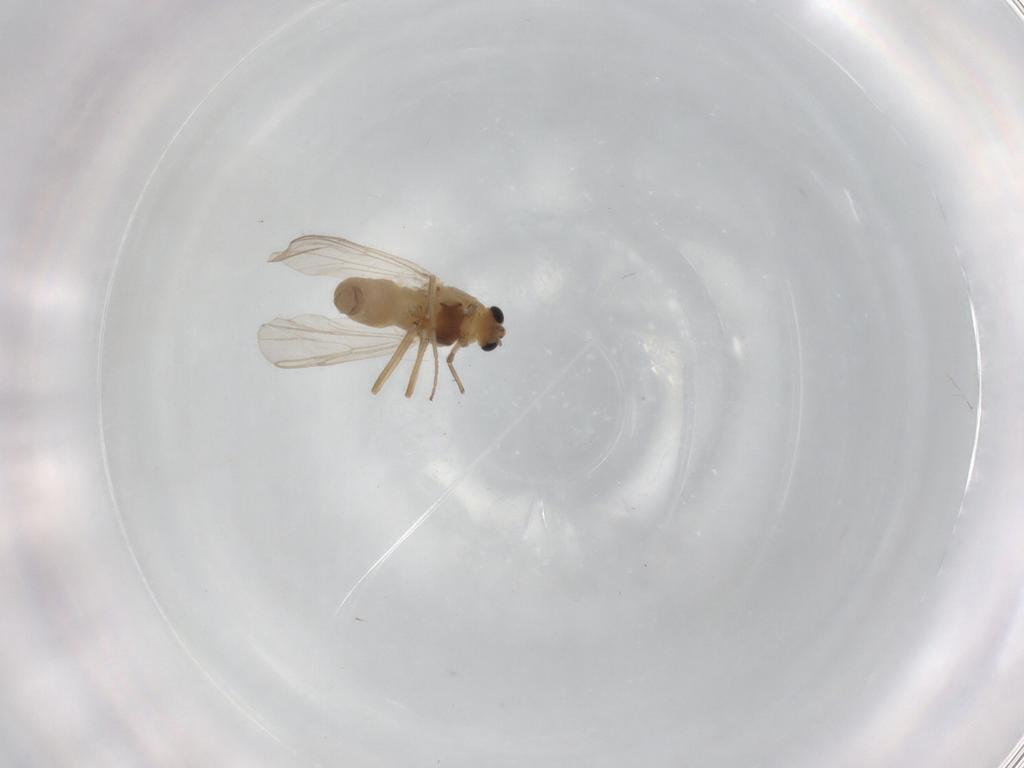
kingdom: Animalia
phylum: Arthropoda
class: Insecta
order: Diptera
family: Chironomidae
